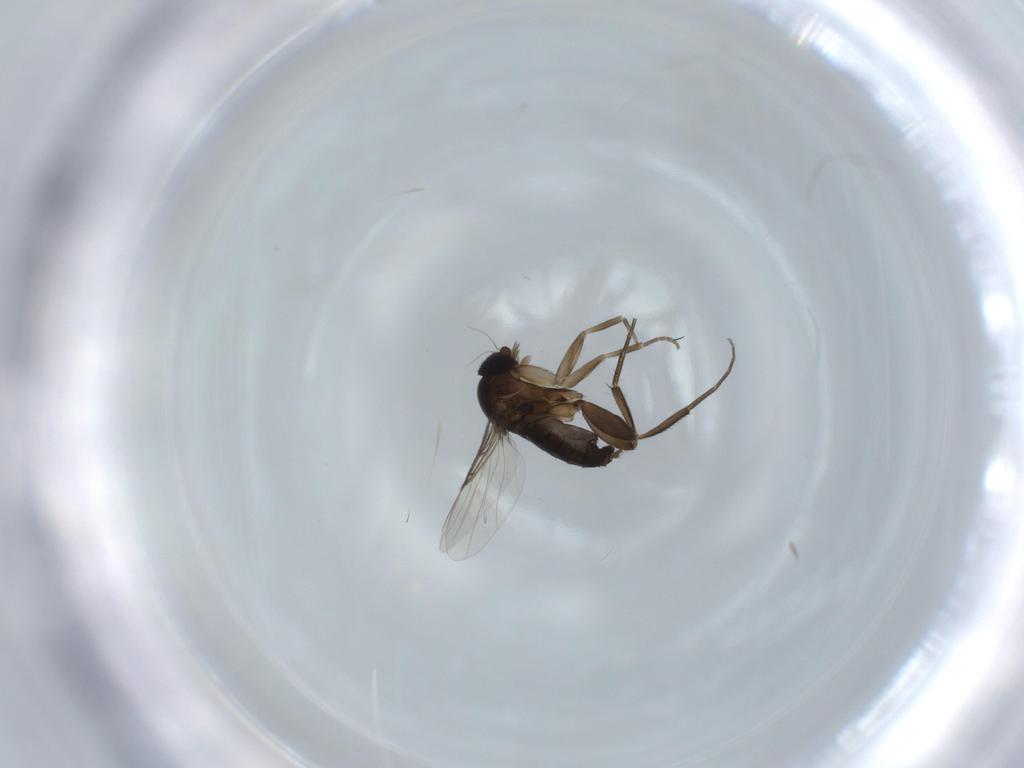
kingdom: Animalia
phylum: Arthropoda
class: Insecta
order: Diptera
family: Phoridae
